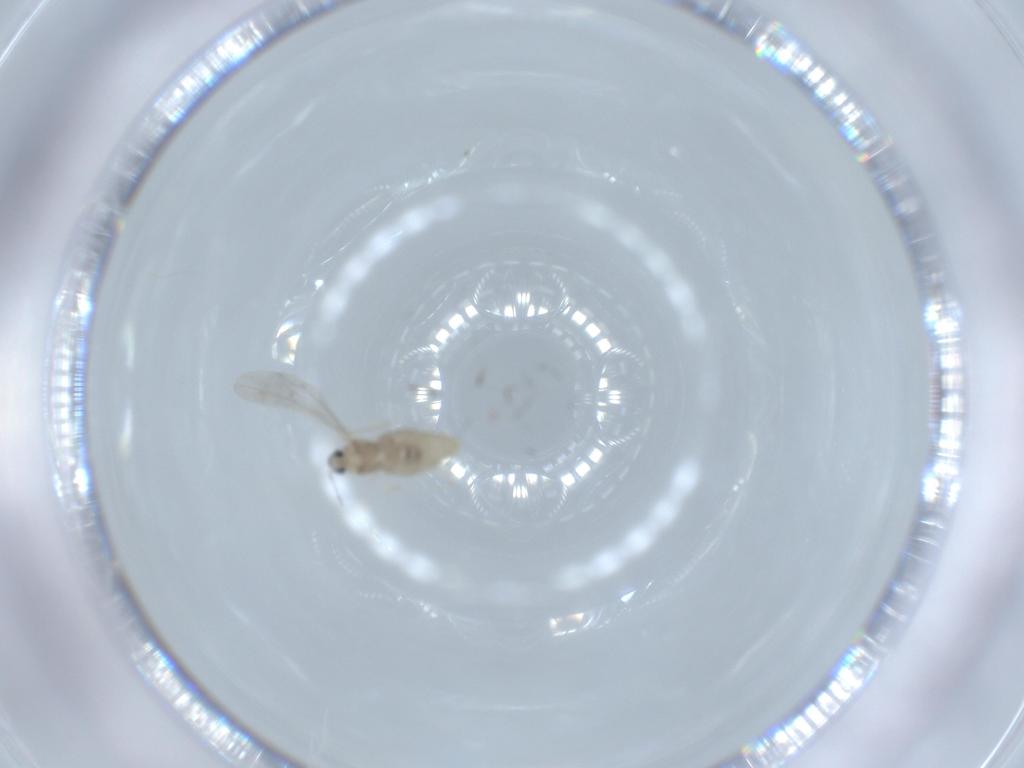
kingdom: Animalia
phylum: Arthropoda
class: Insecta
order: Diptera
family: Cecidomyiidae
